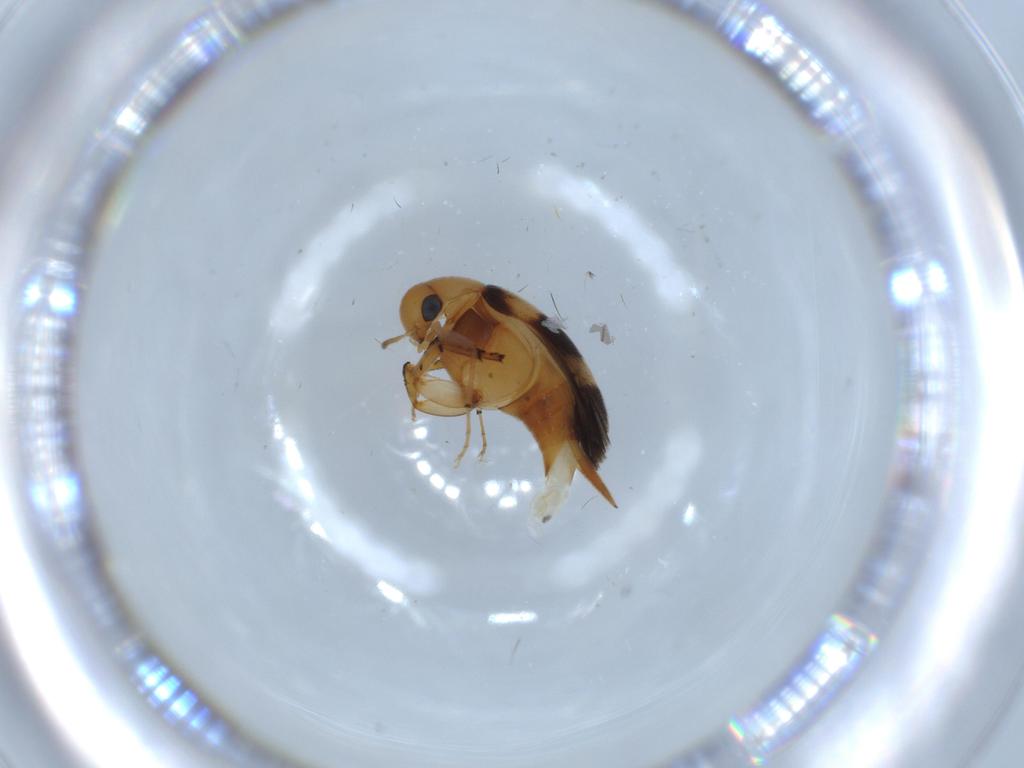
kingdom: Animalia
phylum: Arthropoda
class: Insecta
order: Coleoptera
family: Mordellidae
